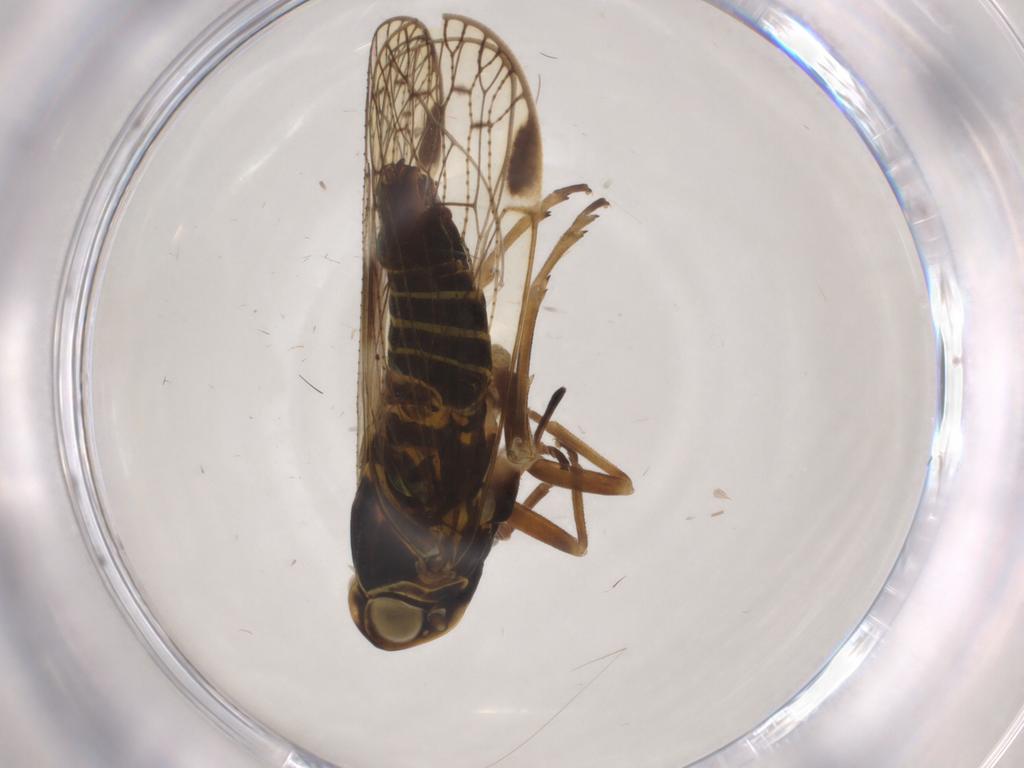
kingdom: Animalia
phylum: Arthropoda
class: Insecta
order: Hemiptera
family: Cixiidae
